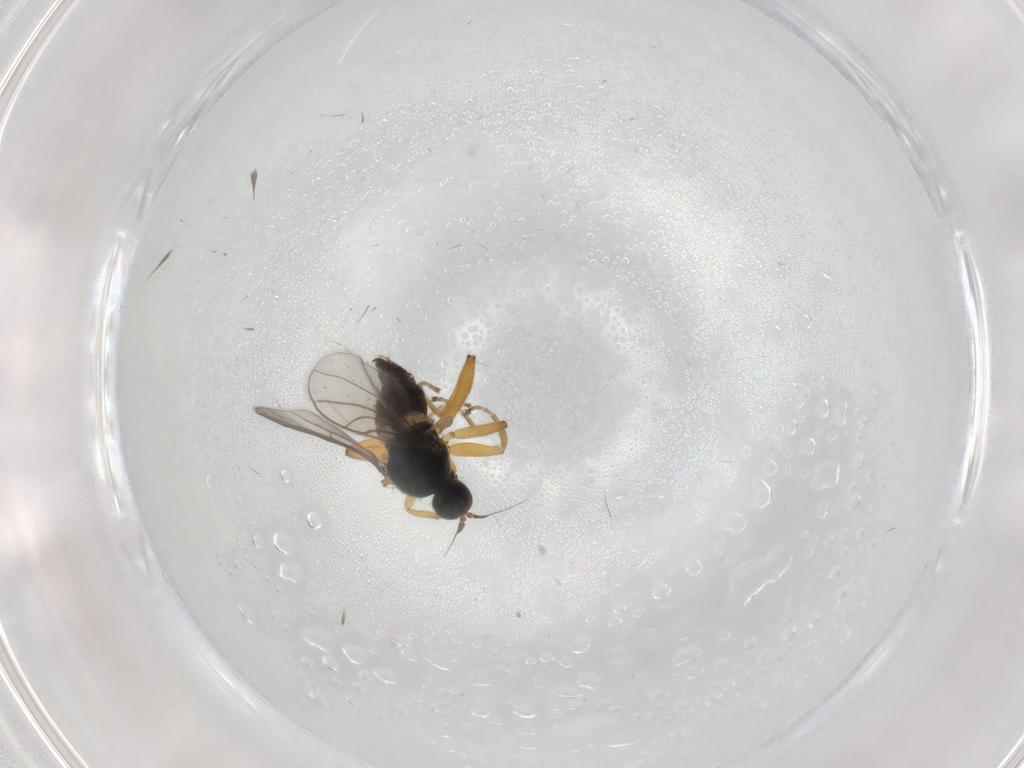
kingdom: Animalia
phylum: Arthropoda
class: Insecta
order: Diptera
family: Hybotidae
